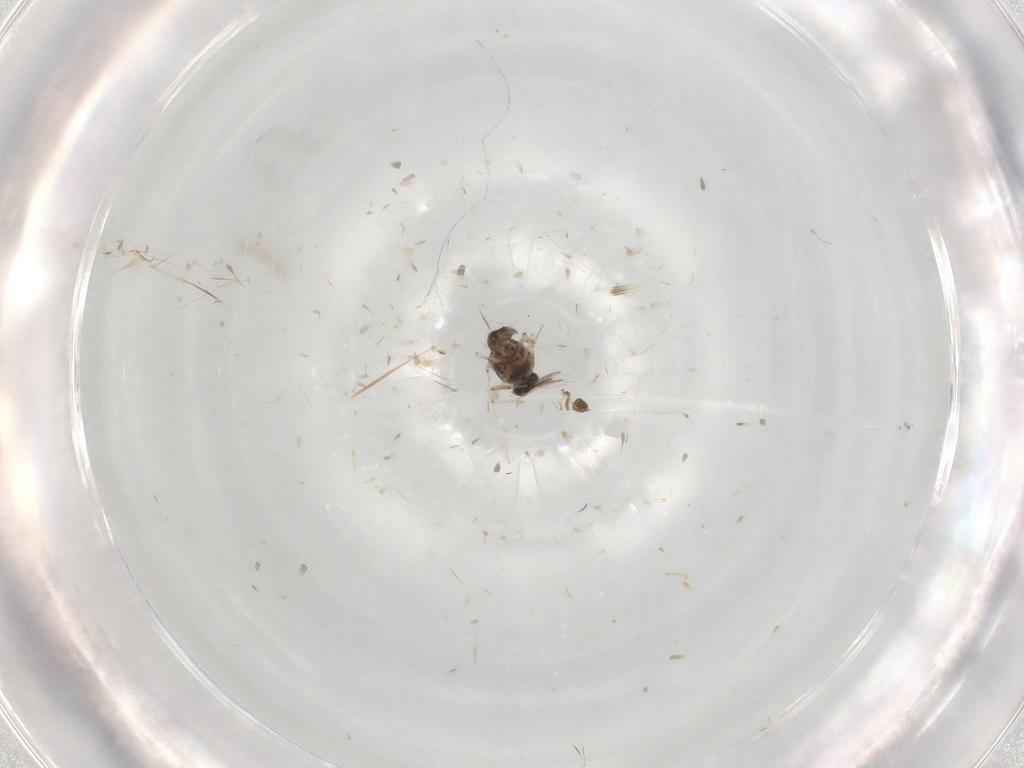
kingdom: Animalia
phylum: Arthropoda
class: Insecta
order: Diptera
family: Ceratopogonidae
